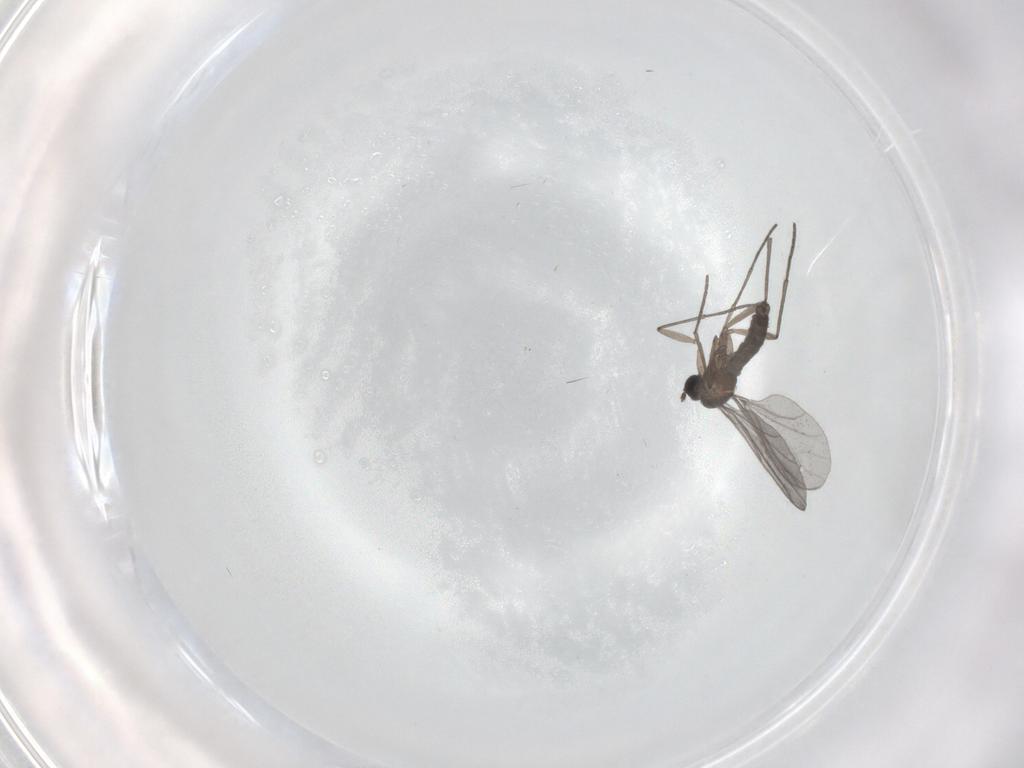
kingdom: Animalia
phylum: Arthropoda
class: Insecta
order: Diptera
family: Sciaridae
